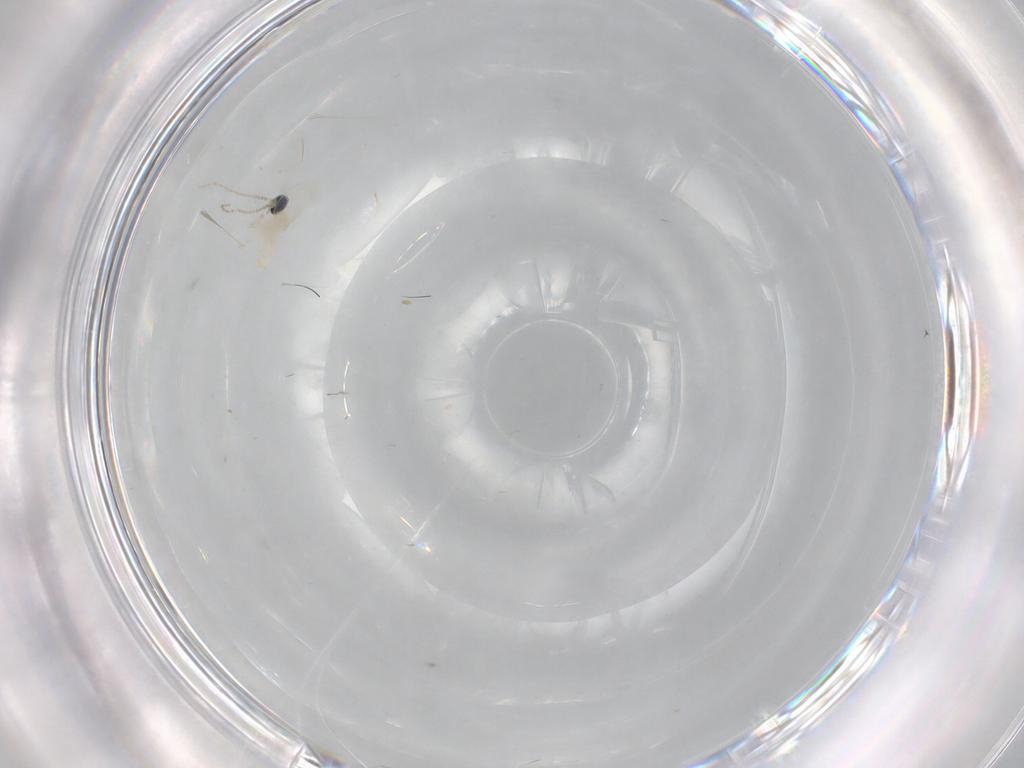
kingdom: Animalia
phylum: Arthropoda
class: Insecta
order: Diptera
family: Tabanidae
